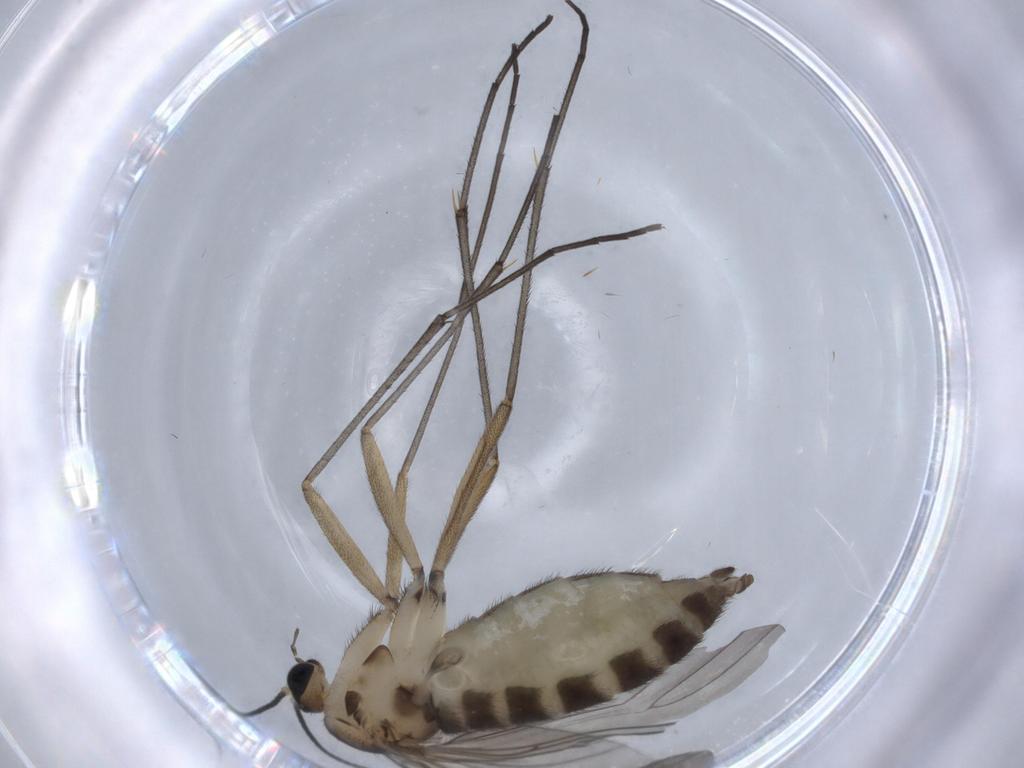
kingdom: Animalia
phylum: Arthropoda
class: Insecta
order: Diptera
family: Sciaridae
